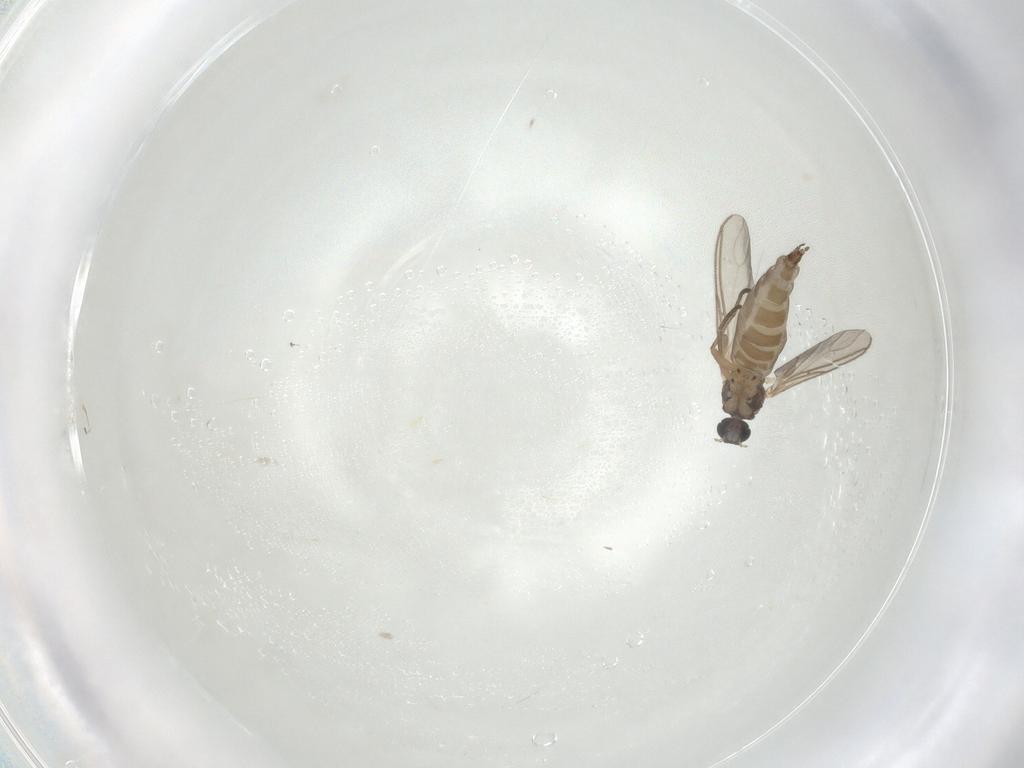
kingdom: Animalia
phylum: Arthropoda
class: Insecta
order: Diptera
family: Sciaridae
